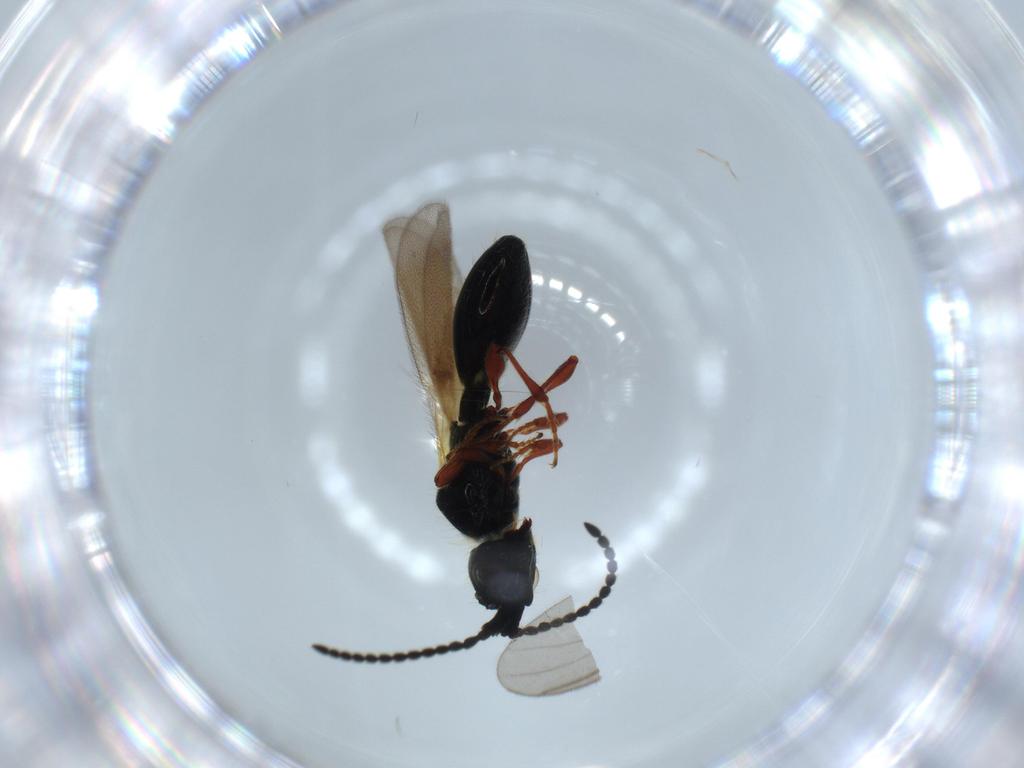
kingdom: Animalia
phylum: Arthropoda
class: Insecta
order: Hymenoptera
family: Diapriidae
